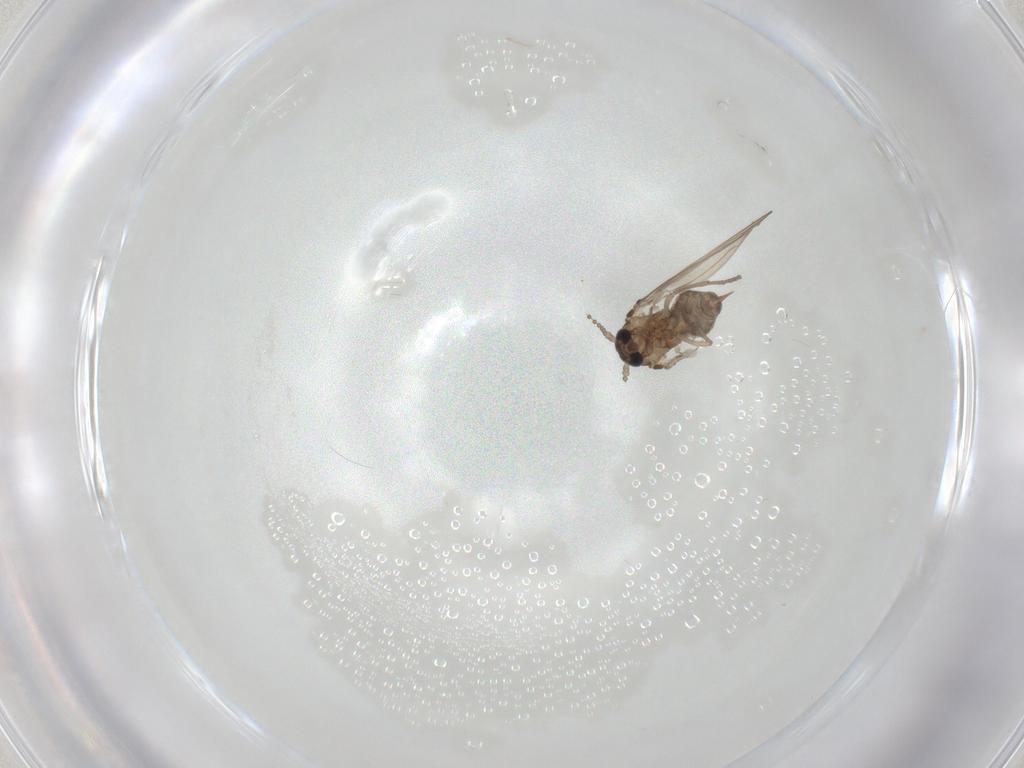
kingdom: Animalia
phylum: Arthropoda
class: Insecta
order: Diptera
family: Psychodidae
